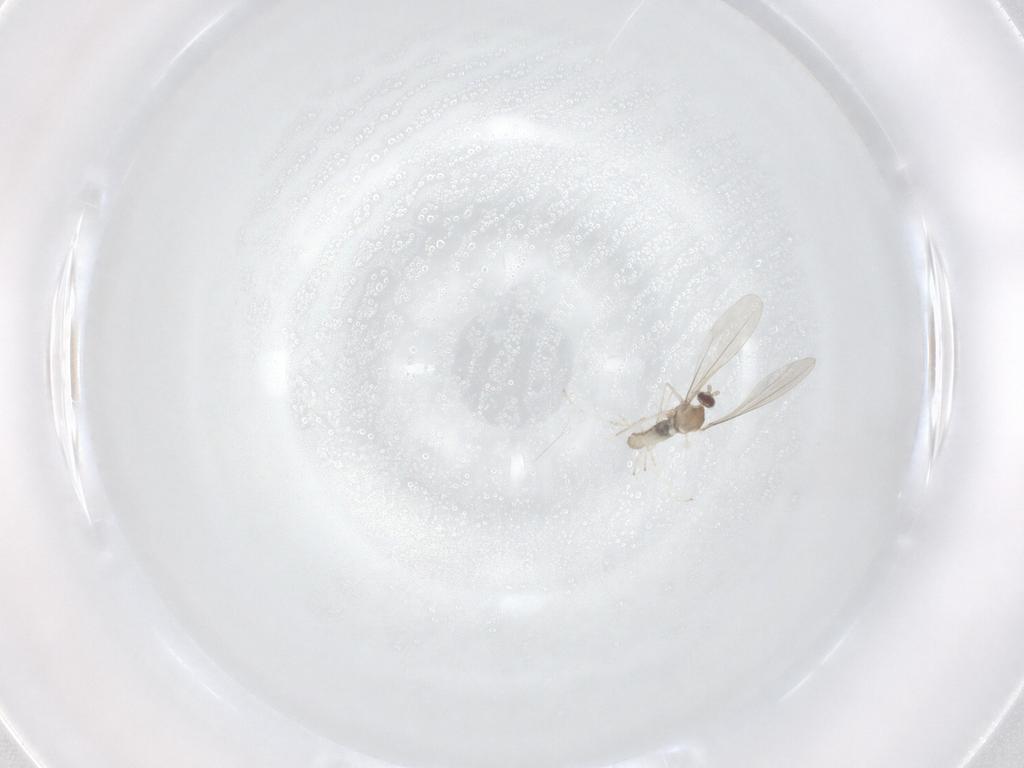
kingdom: Animalia
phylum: Arthropoda
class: Insecta
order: Diptera
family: Cecidomyiidae
